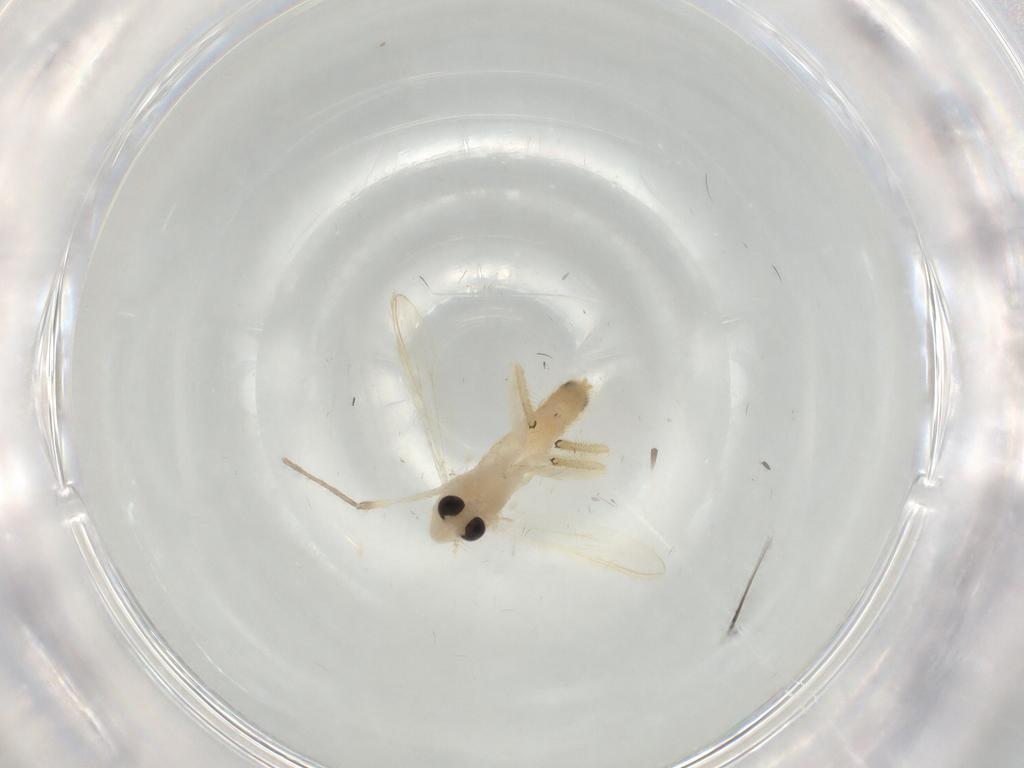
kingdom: Animalia
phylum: Arthropoda
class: Insecta
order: Diptera
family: Chironomidae
